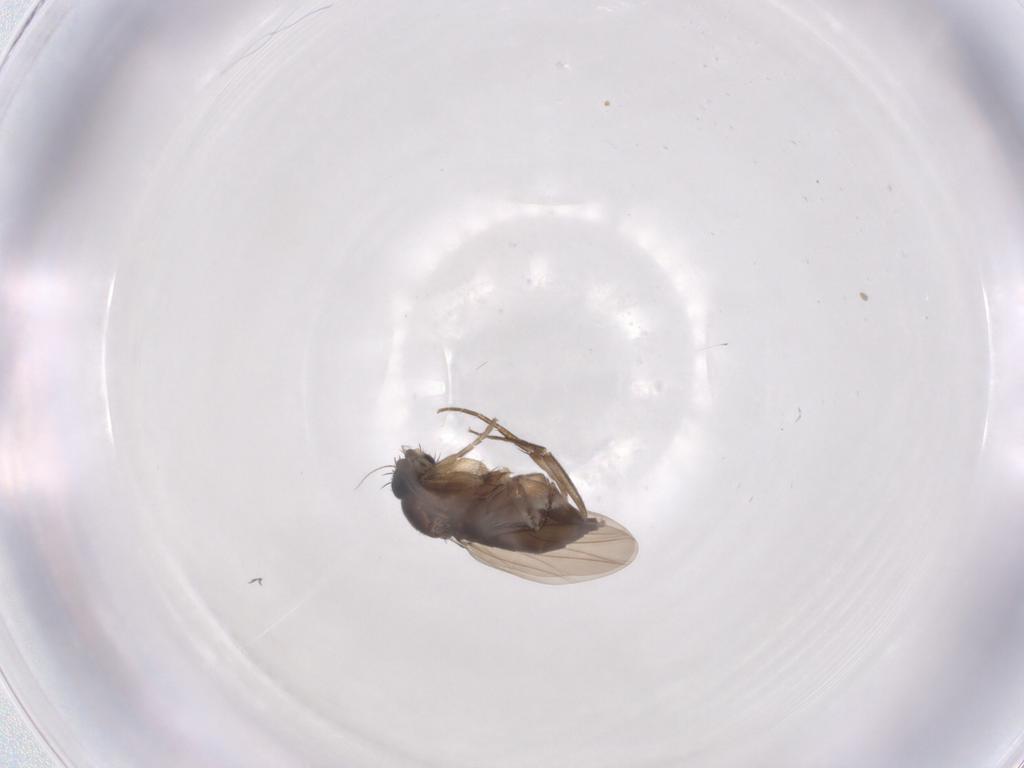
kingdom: Animalia
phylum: Arthropoda
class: Insecta
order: Diptera
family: Phoridae
